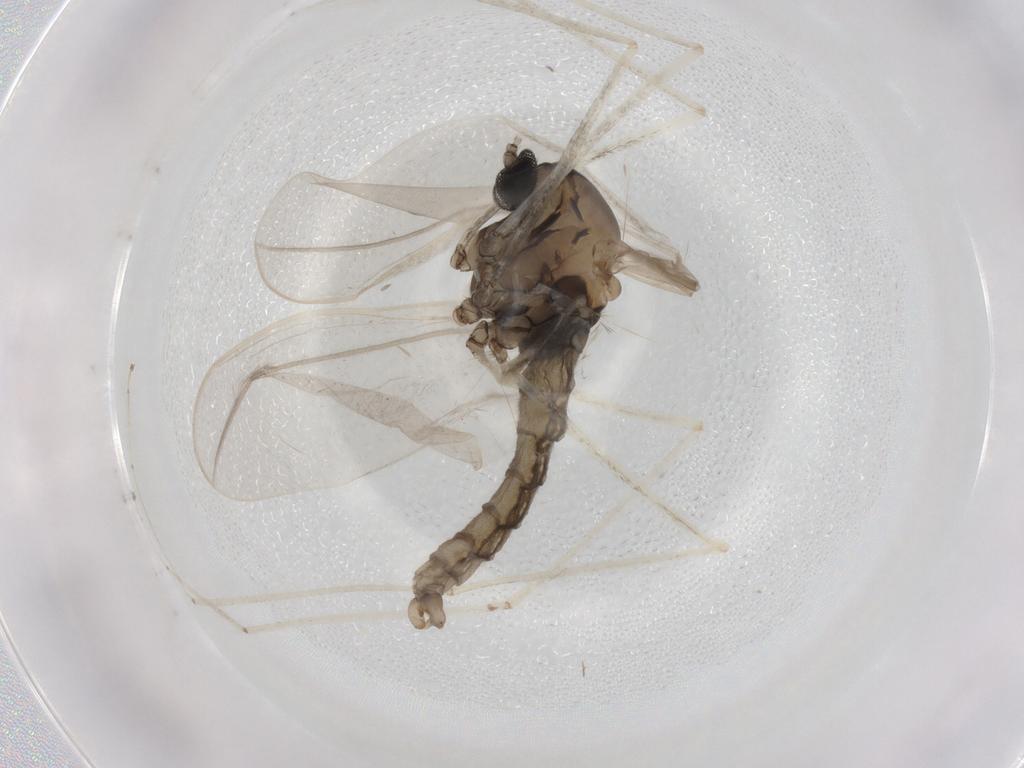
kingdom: Animalia
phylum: Arthropoda
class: Insecta
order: Diptera
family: Cecidomyiidae
